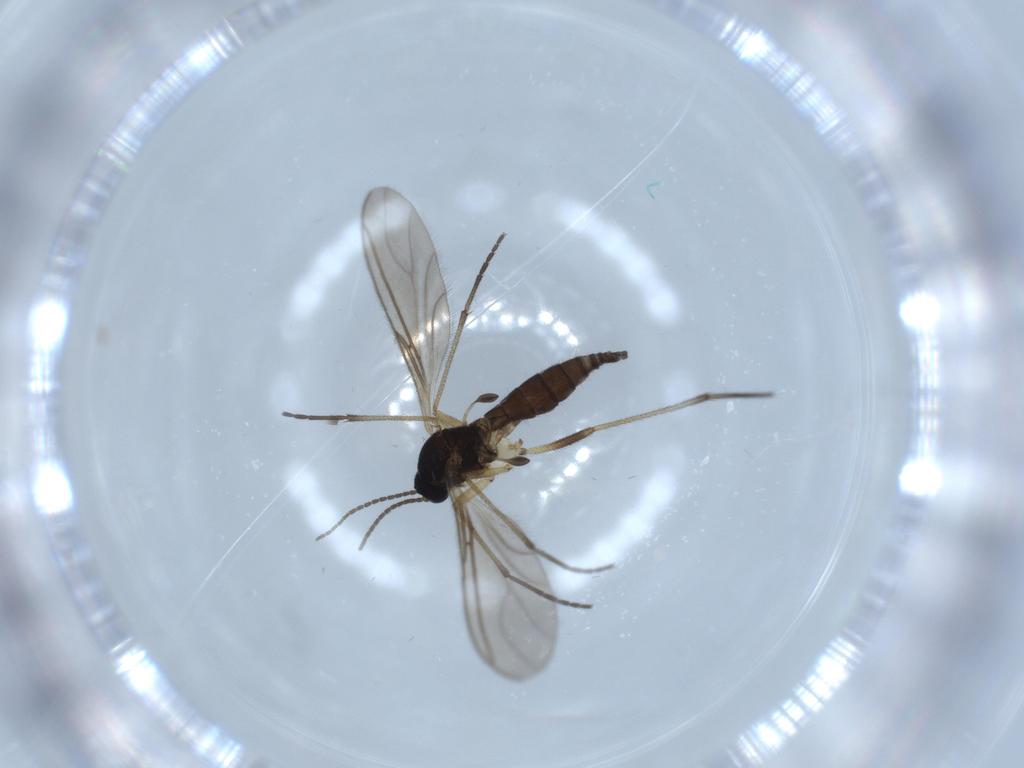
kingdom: Animalia
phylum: Arthropoda
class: Insecta
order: Diptera
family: Sciaridae
